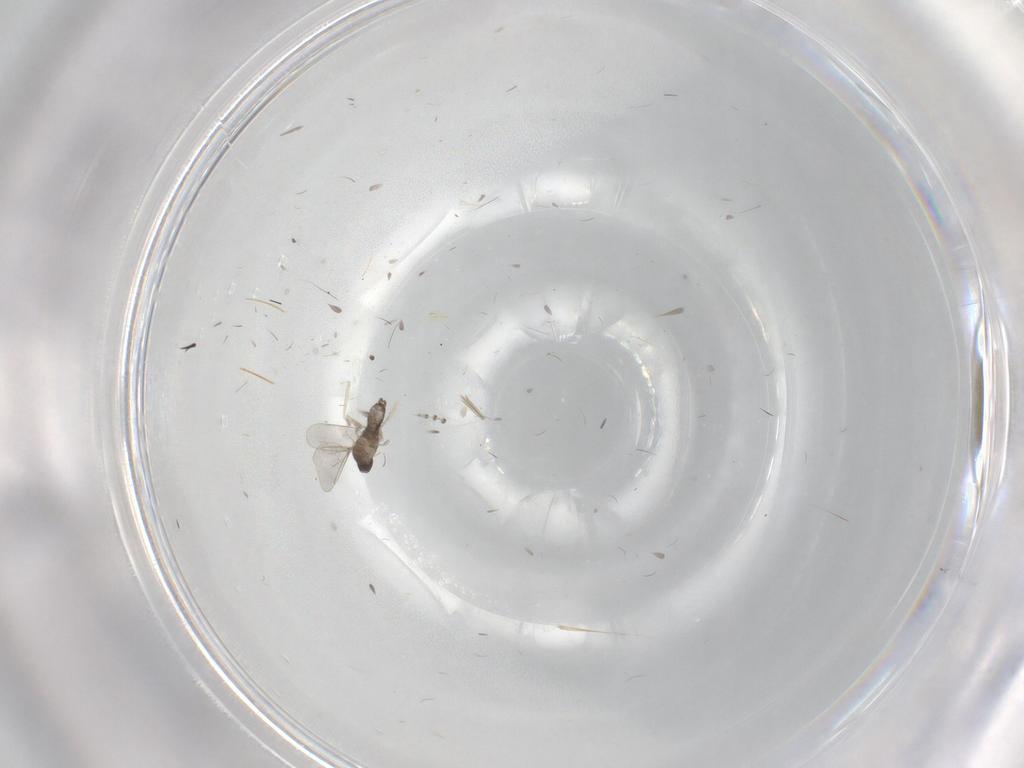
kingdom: Animalia
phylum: Arthropoda
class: Insecta
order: Diptera
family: Cecidomyiidae
